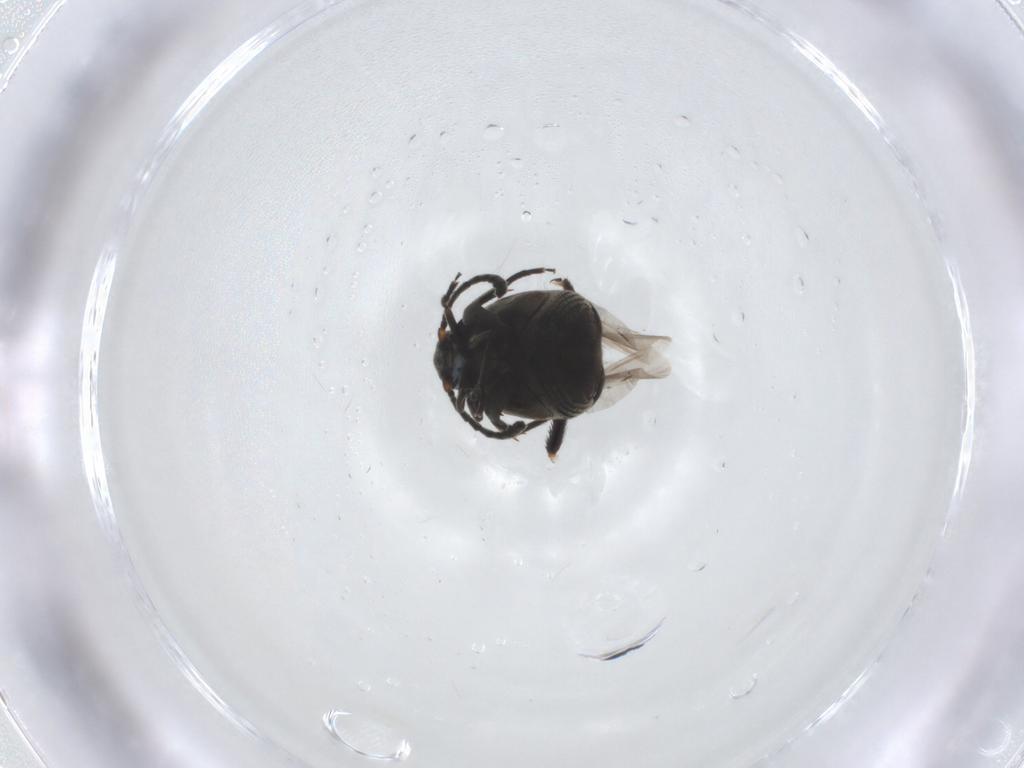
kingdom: Animalia
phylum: Arthropoda
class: Insecta
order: Coleoptera
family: Chrysomelidae
